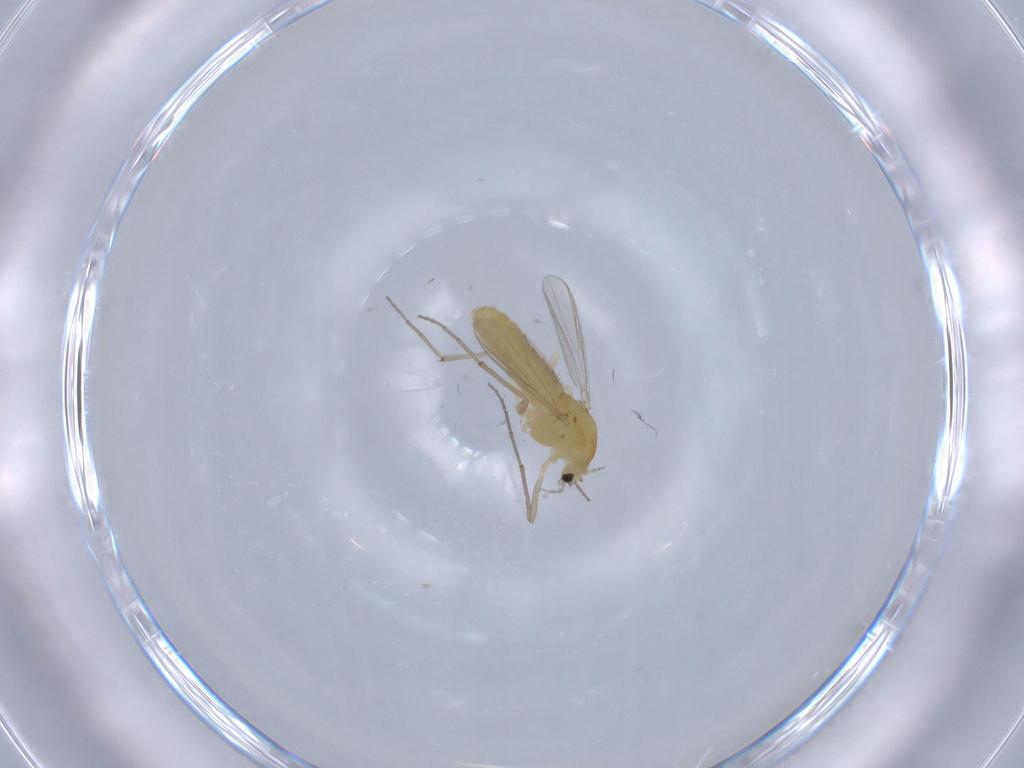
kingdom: Animalia
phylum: Arthropoda
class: Insecta
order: Diptera
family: Chironomidae
